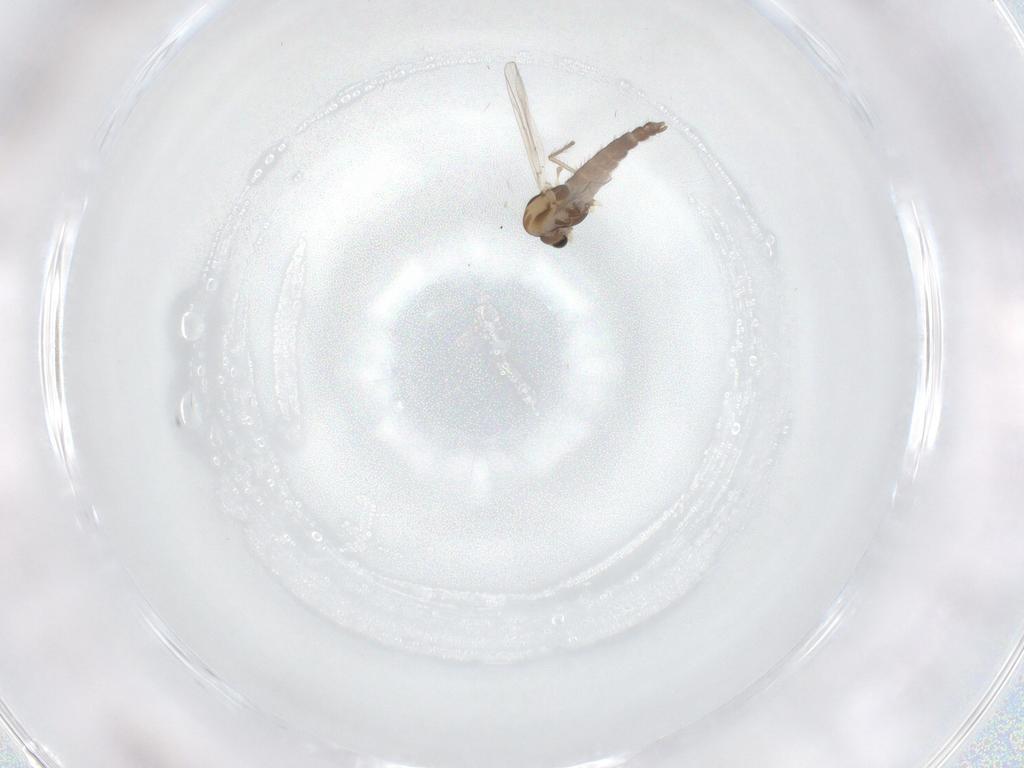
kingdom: Animalia
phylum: Arthropoda
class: Insecta
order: Diptera
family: Chironomidae
